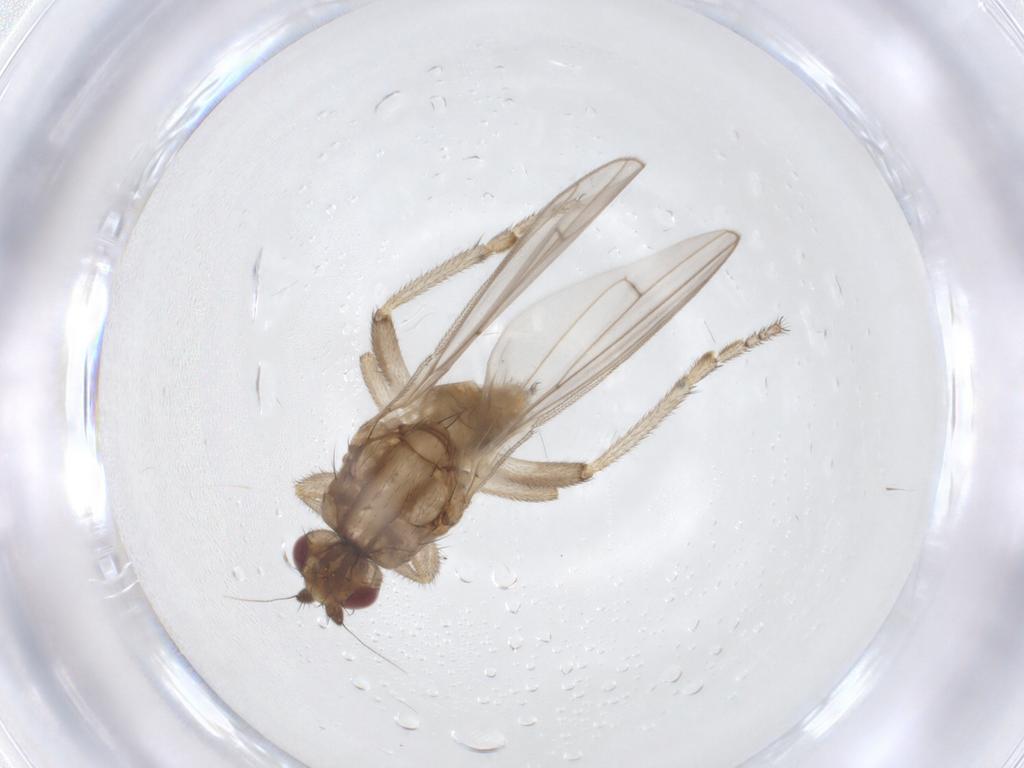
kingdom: Animalia
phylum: Arthropoda
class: Insecta
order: Diptera
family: Sphaeroceridae
